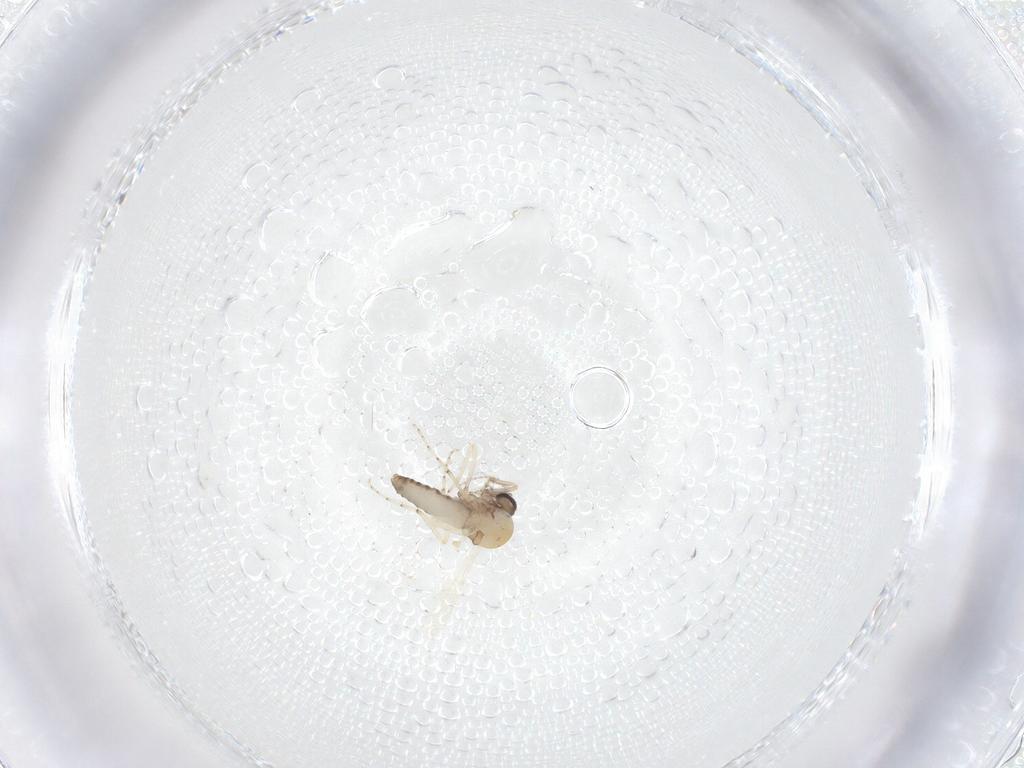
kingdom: Animalia
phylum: Arthropoda
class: Insecta
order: Diptera
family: Ceratopogonidae
